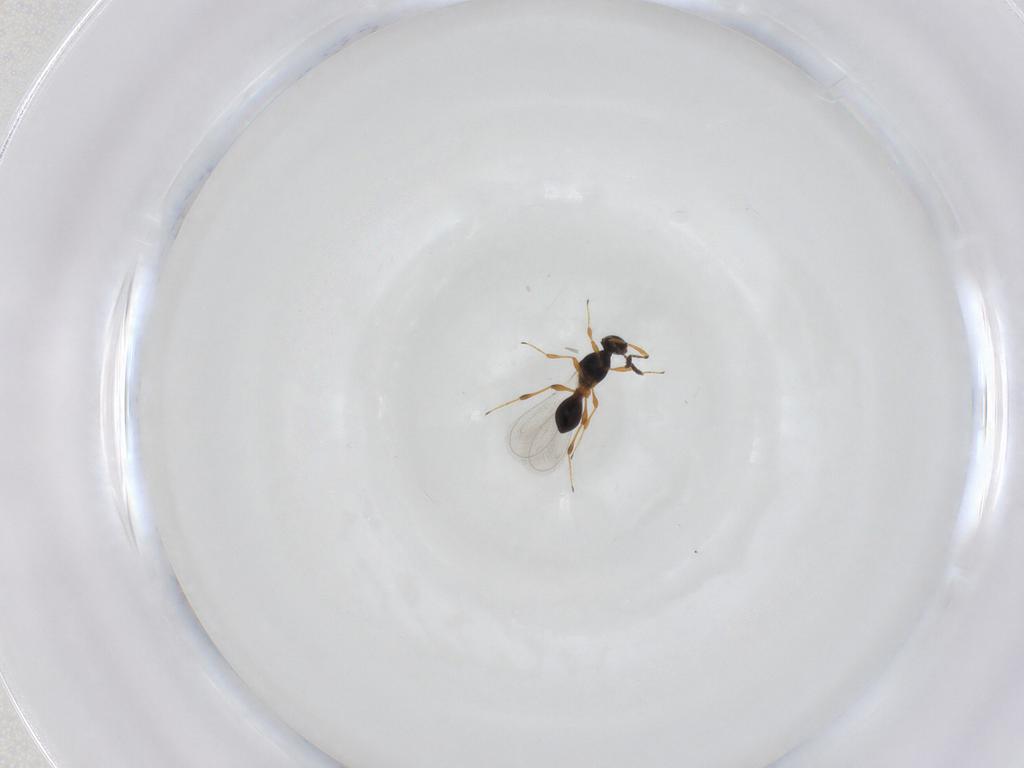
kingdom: Animalia
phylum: Arthropoda
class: Insecta
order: Hymenoptera
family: Platygastridae
